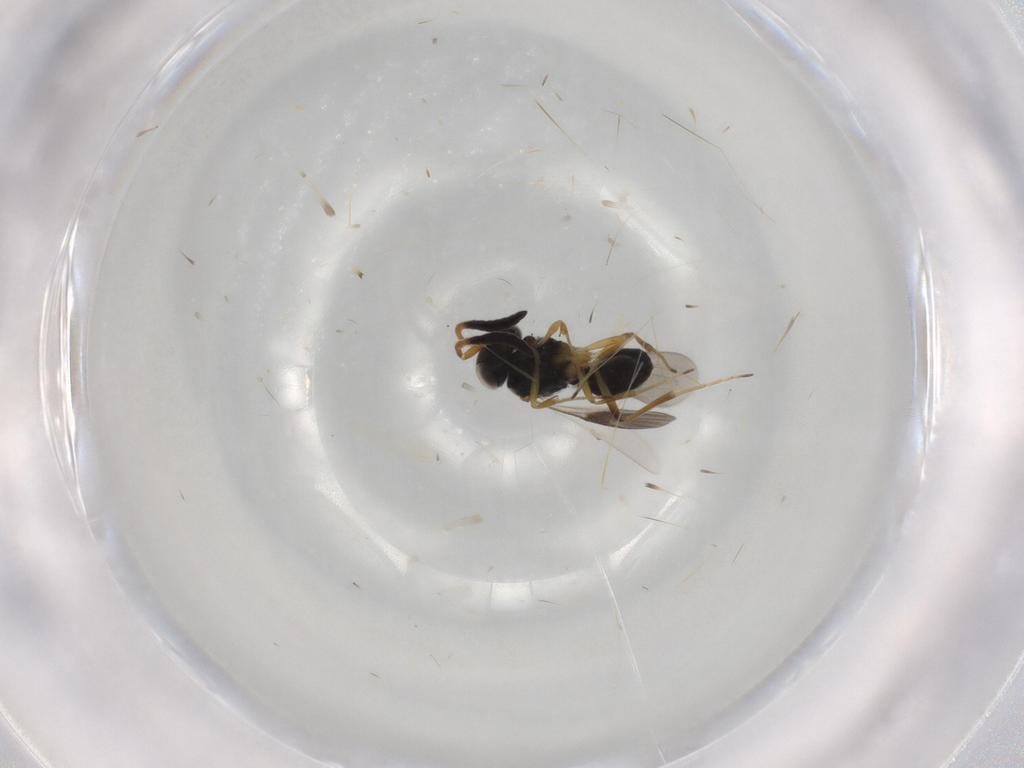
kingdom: Animalia
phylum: Arthropoda
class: Insecta
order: Hymenoptera
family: Scelionidae
